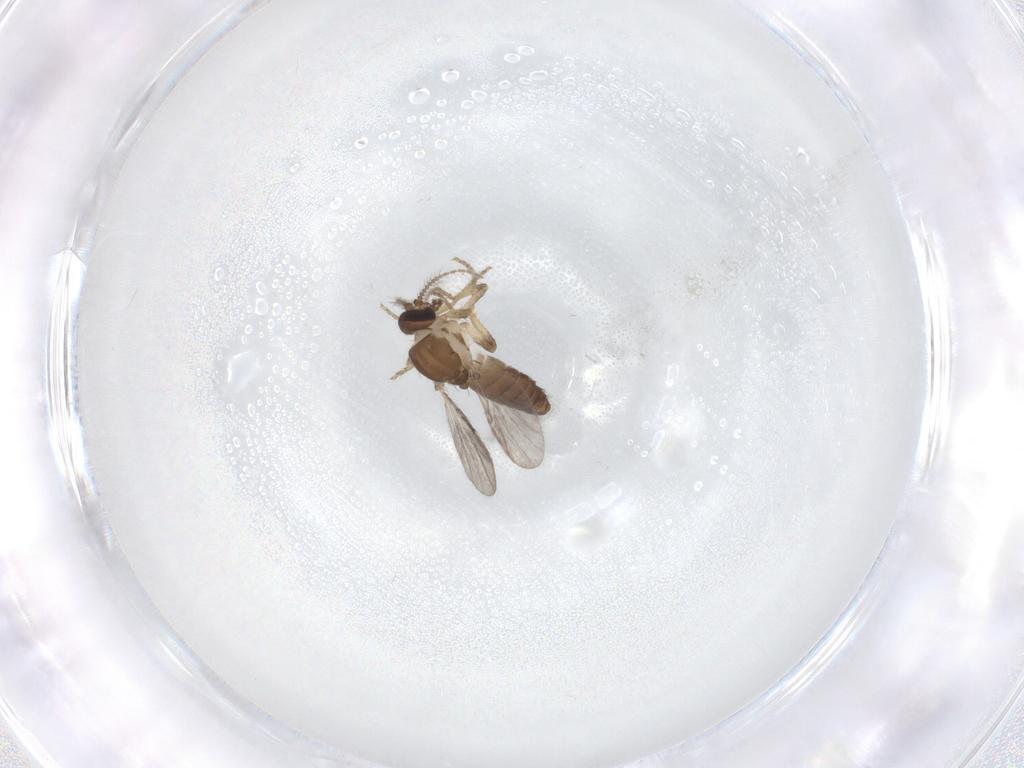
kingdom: Animalia
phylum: Arthropoda
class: Insecta
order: Diptera
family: Ceratopogonidae
